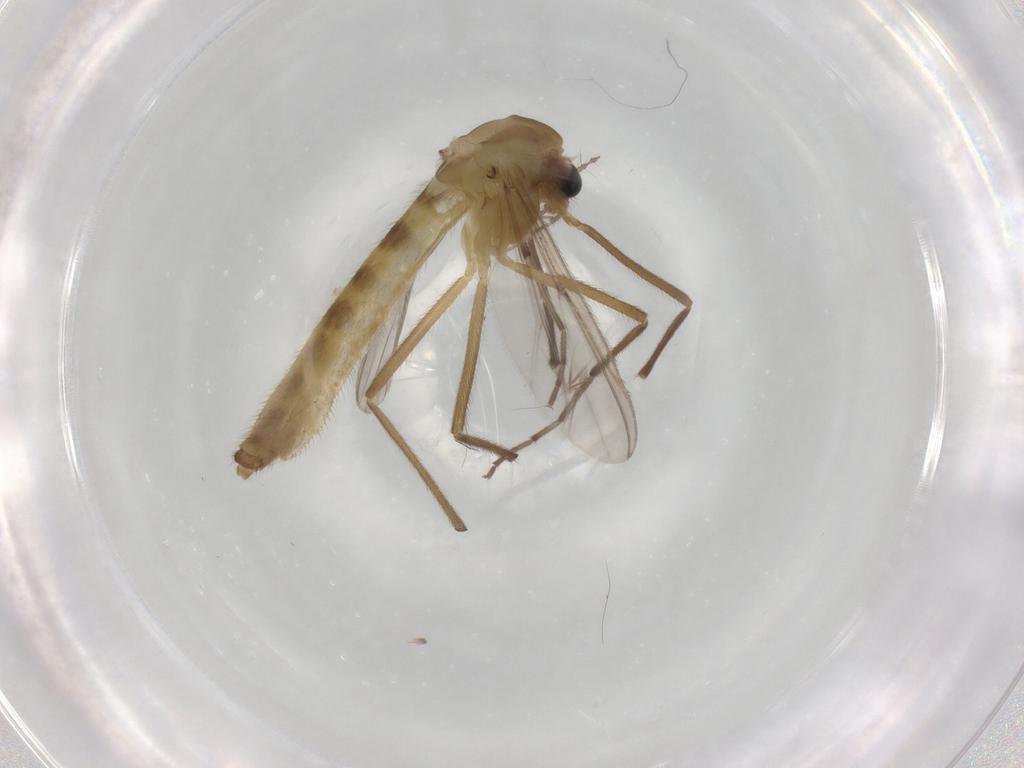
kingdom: Animalia
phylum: Arthropoda
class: Insecta
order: Diptera
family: Chironomidae
